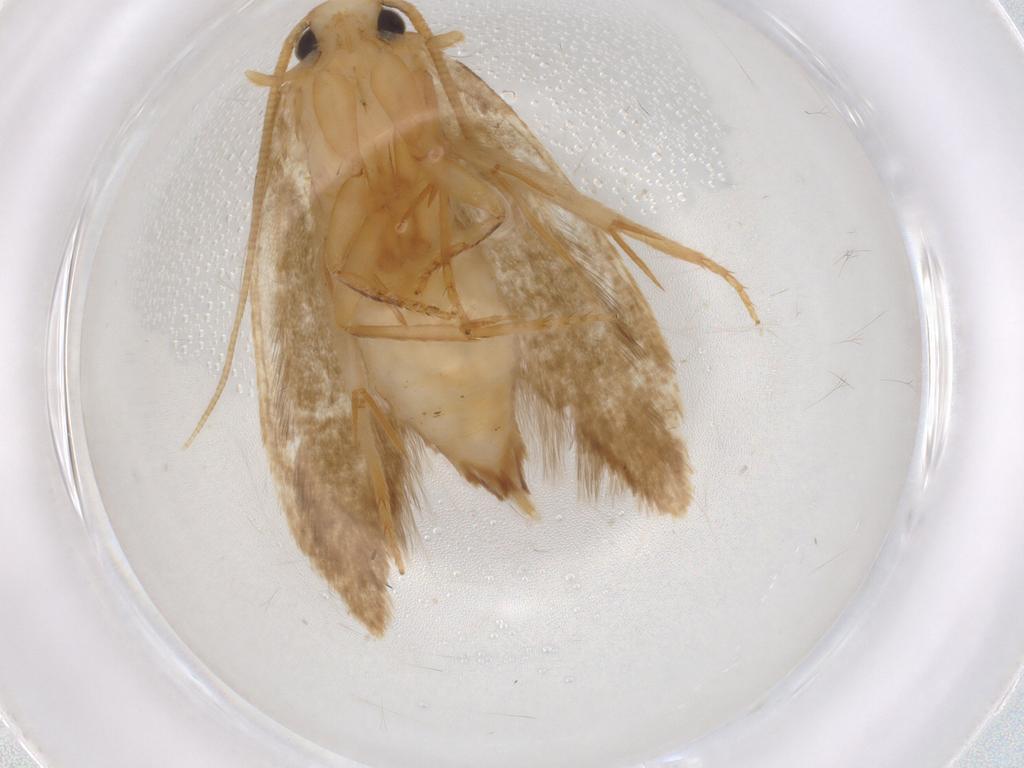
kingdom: Animalia
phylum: Arthropoda
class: Insecta
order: Lepidoptera
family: Tineidae
